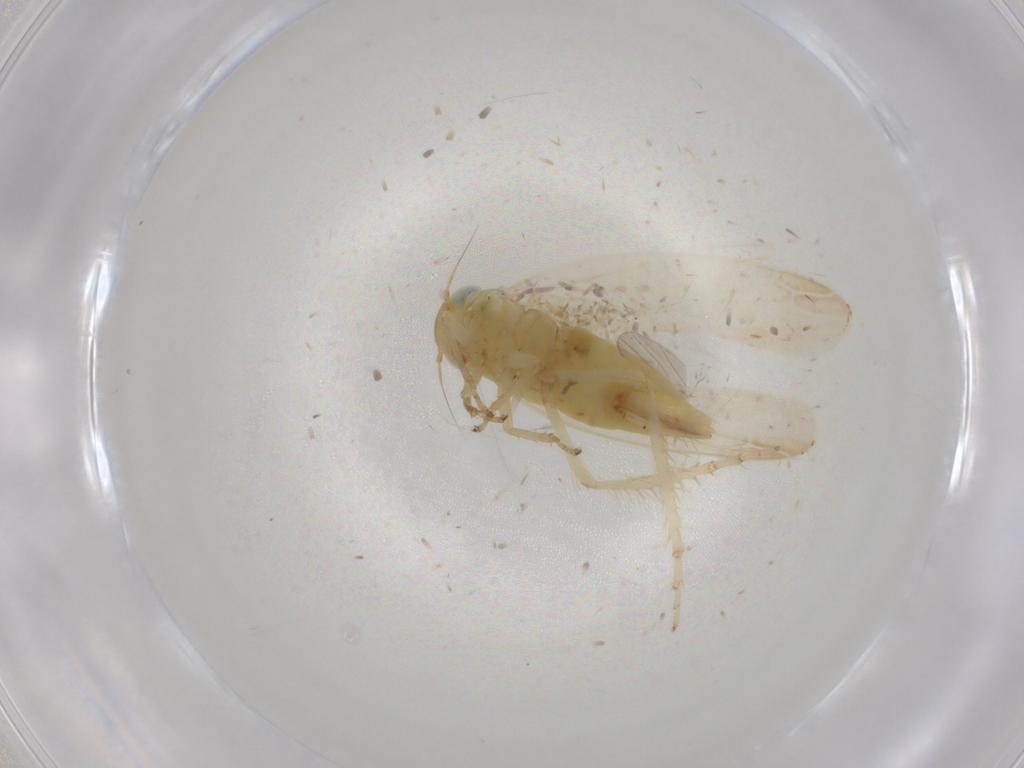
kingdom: Animalia
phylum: Arthropoda
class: Insecta
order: Hemiptera
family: Cicadellidae
